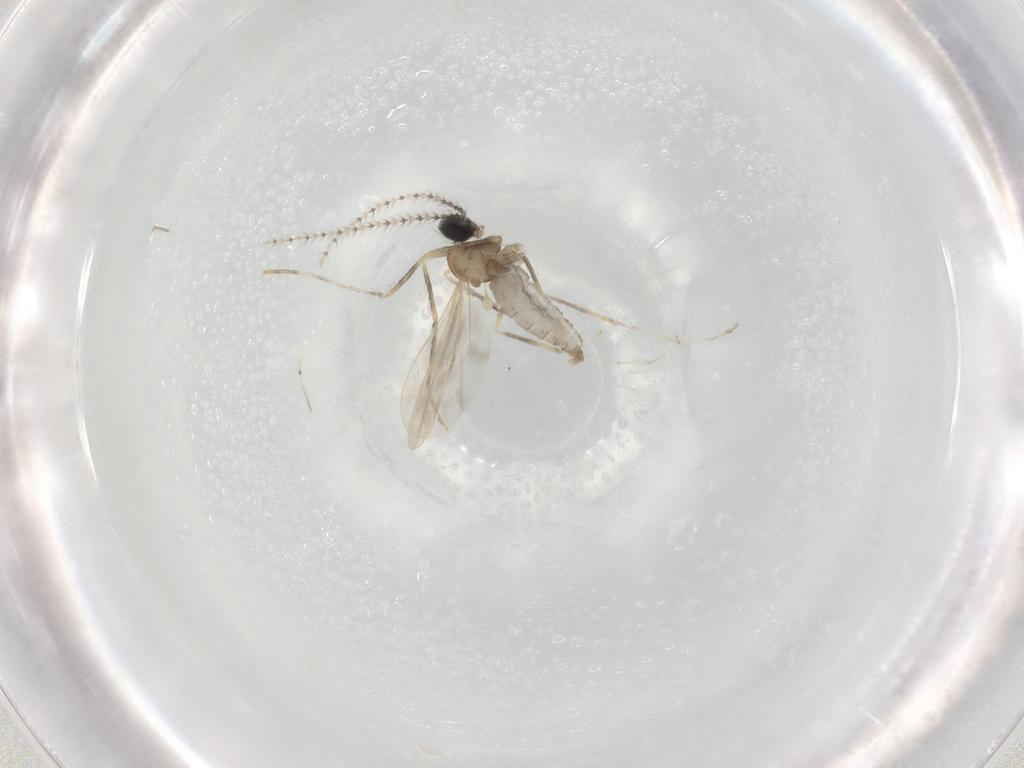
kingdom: Animalia
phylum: Arthropoda
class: Insecta
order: Diptera
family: Cecidomyiidae
